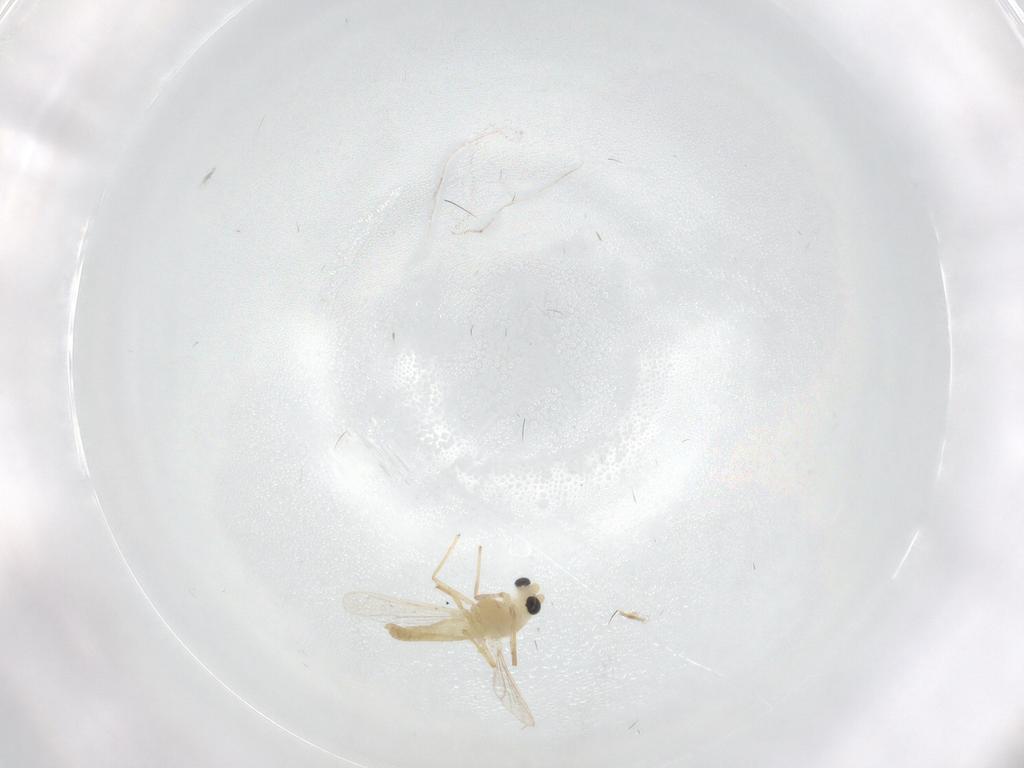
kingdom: Animalia
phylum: Arthropoda
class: Insecta
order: Diptera
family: Chironomidae
